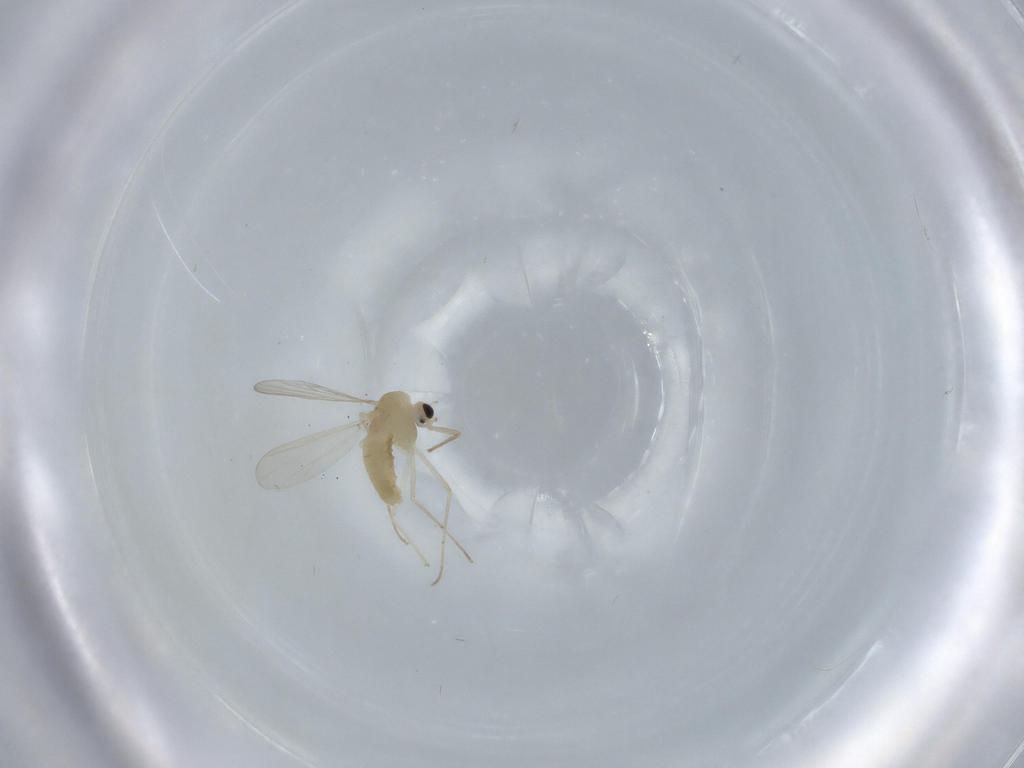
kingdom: Animalia
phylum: Arthropoda
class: Insecta
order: Diptera
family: Chironomidae
